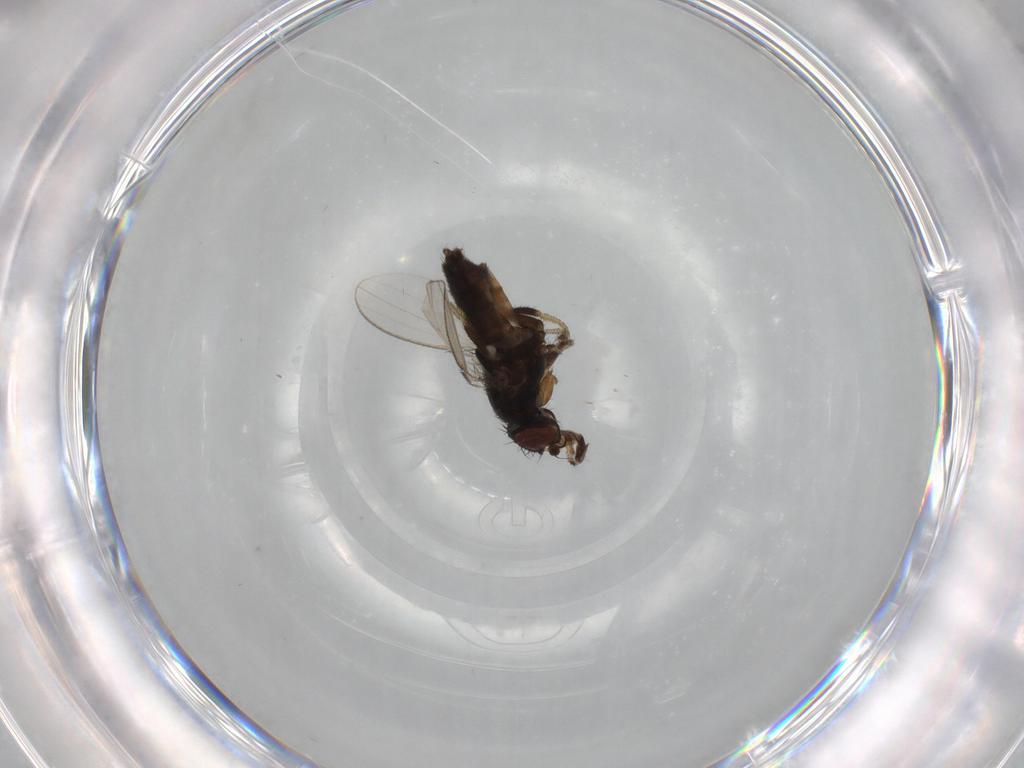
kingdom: Animalia
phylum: Arthropoda
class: Insecta
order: Diptera
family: Milichiidae
